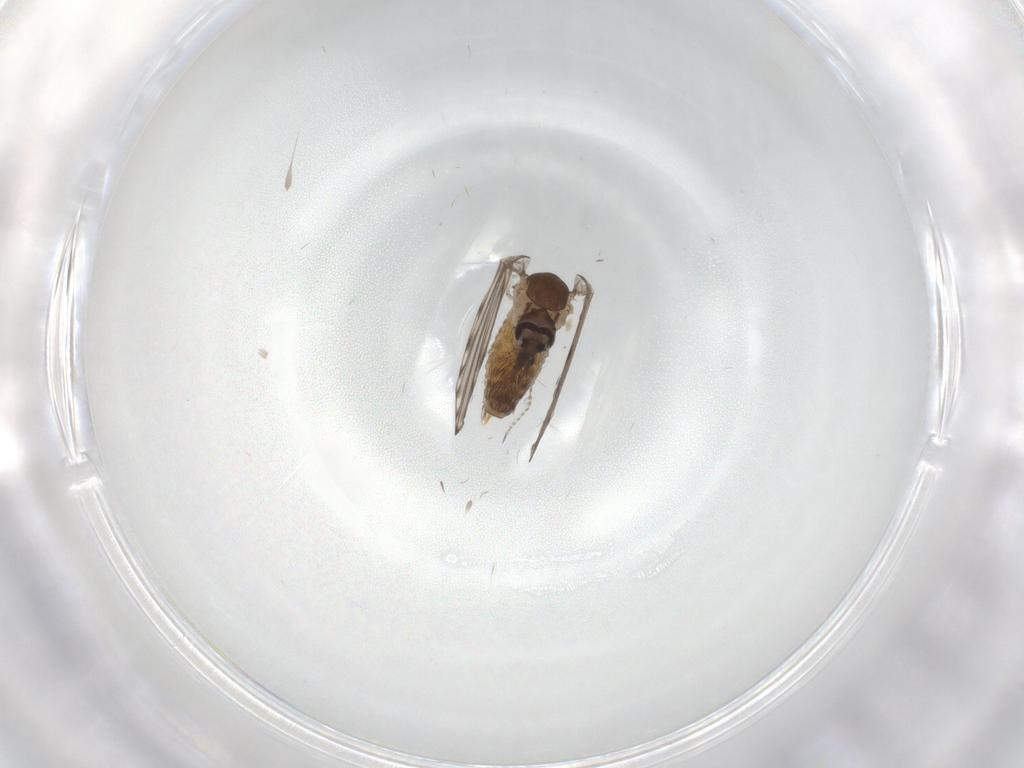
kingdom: Animalia
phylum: Arthropoda
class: Insecta
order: Diptera
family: Psychodidae
